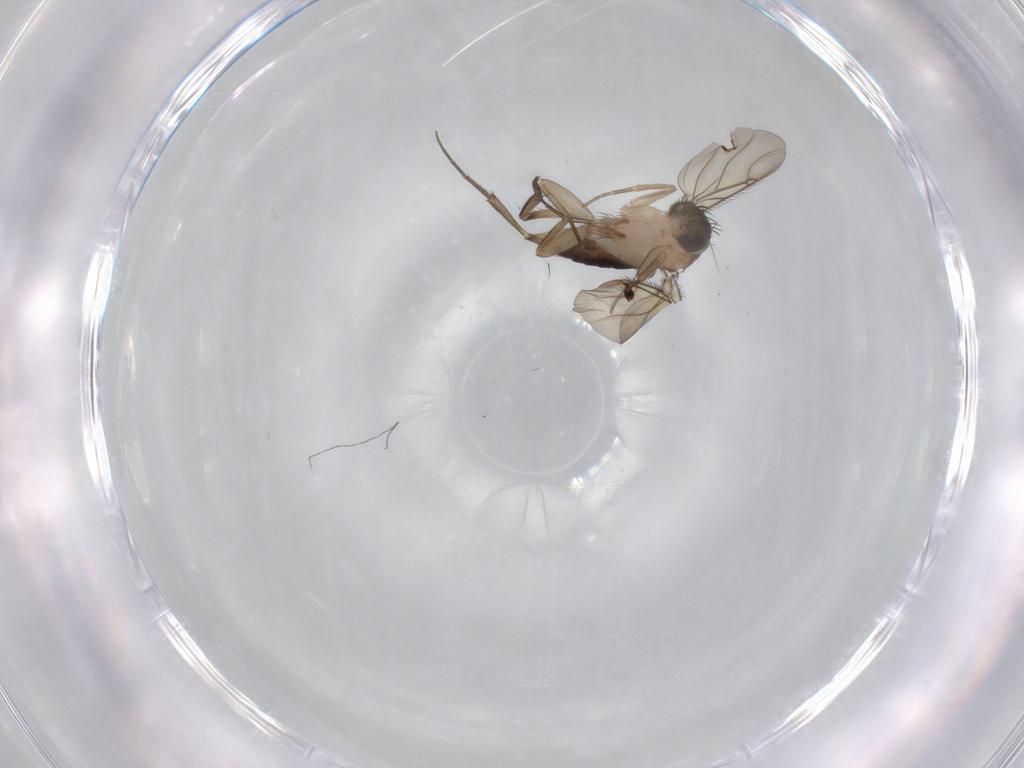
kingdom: Animalia
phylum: Arthropoda
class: Insecta
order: Diptera
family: Phoridae
